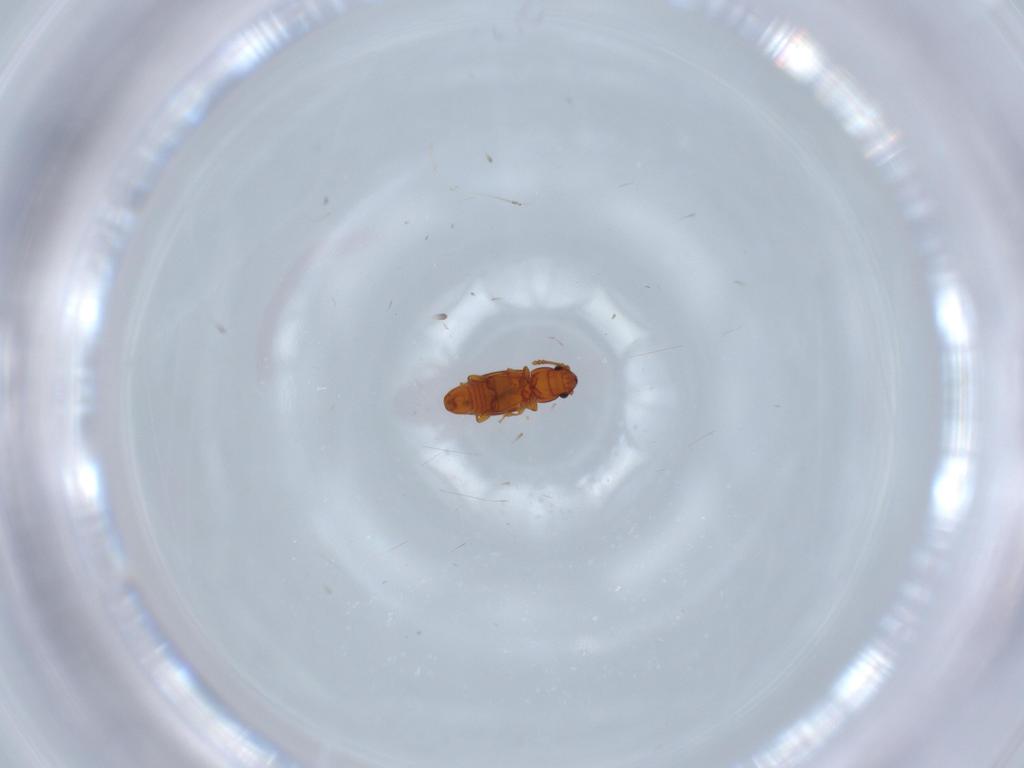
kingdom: Animalia
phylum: Arthropoda
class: Insecta
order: Coleoptera
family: Smicripidae
